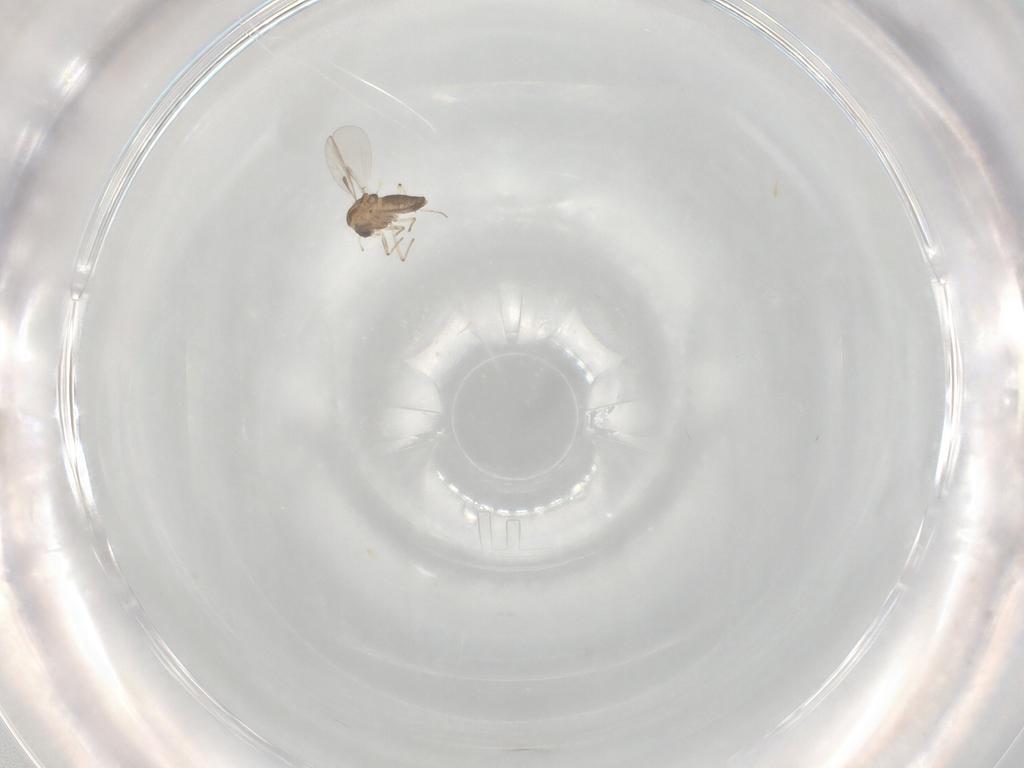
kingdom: Animalia
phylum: Arthropoda
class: Insecta
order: Diptera
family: Chironomidae
